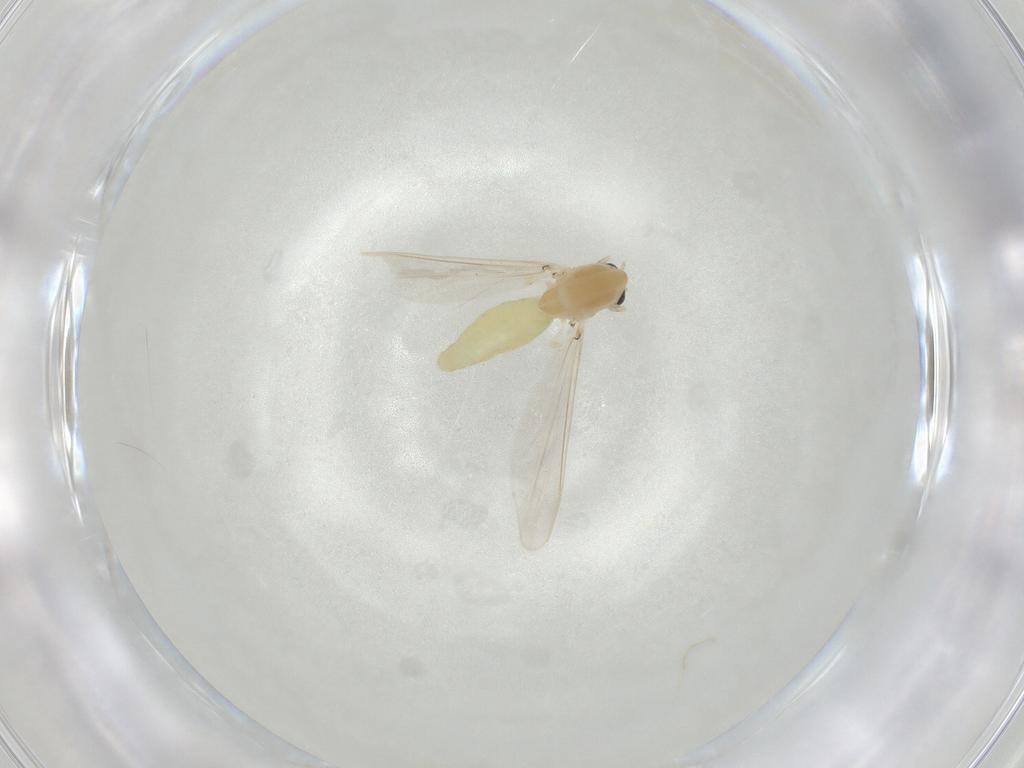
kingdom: Animalia
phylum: Arthropoda
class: Insecta
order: Diptera
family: Chironomidae
